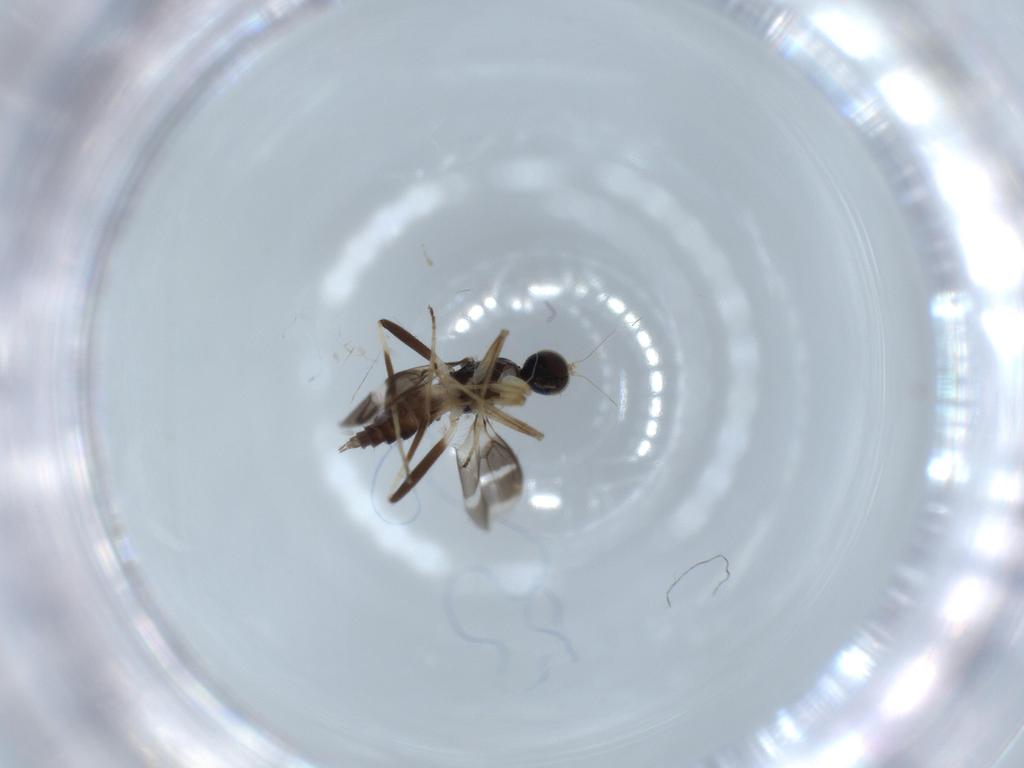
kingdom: Animalia
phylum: Arthropoda
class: Insecta
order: Diptera
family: Hybotidae
